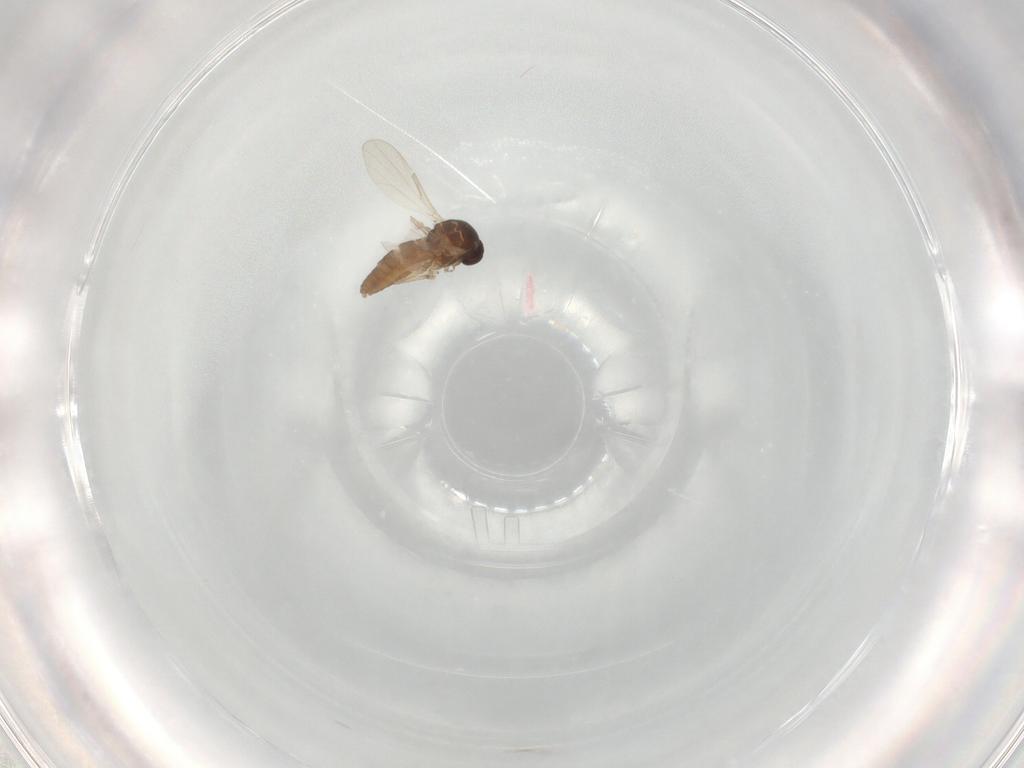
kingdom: Animalia
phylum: Arthropoda
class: Insecta
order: Diptera
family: Ceratopogonidae
